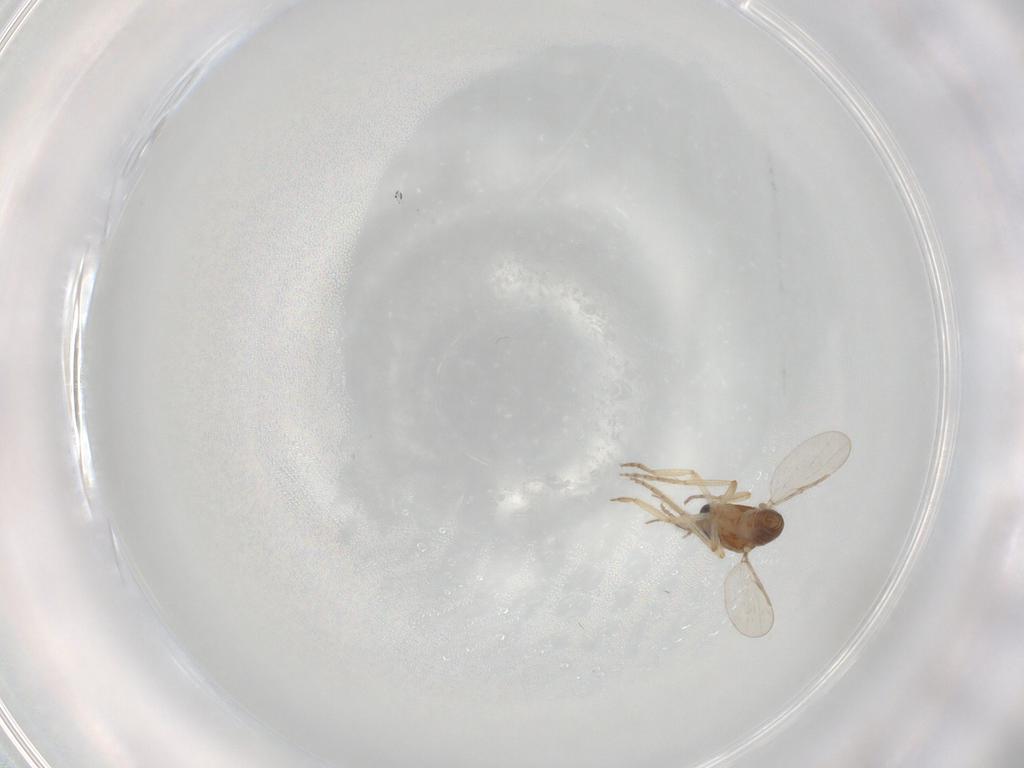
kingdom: Animalia
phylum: Arthropoda
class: Insecta
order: Diptera
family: Ceratopogonidae
